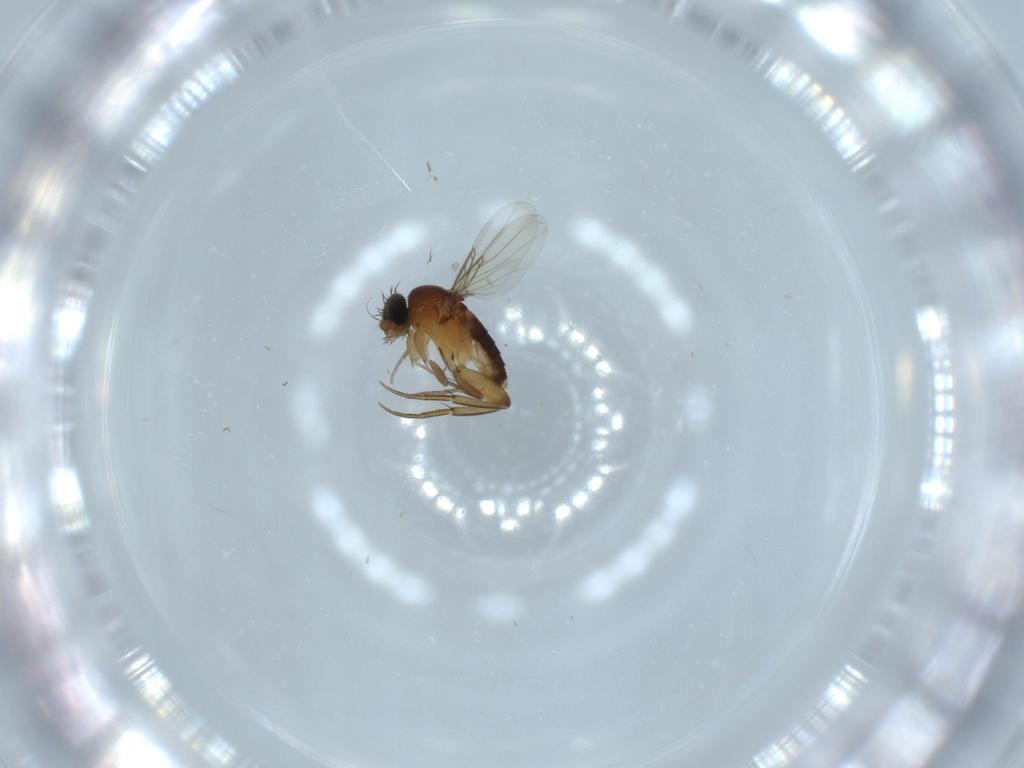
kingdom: Animalia
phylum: Arthropoda
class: Insecta
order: Diptera
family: Phoridae
